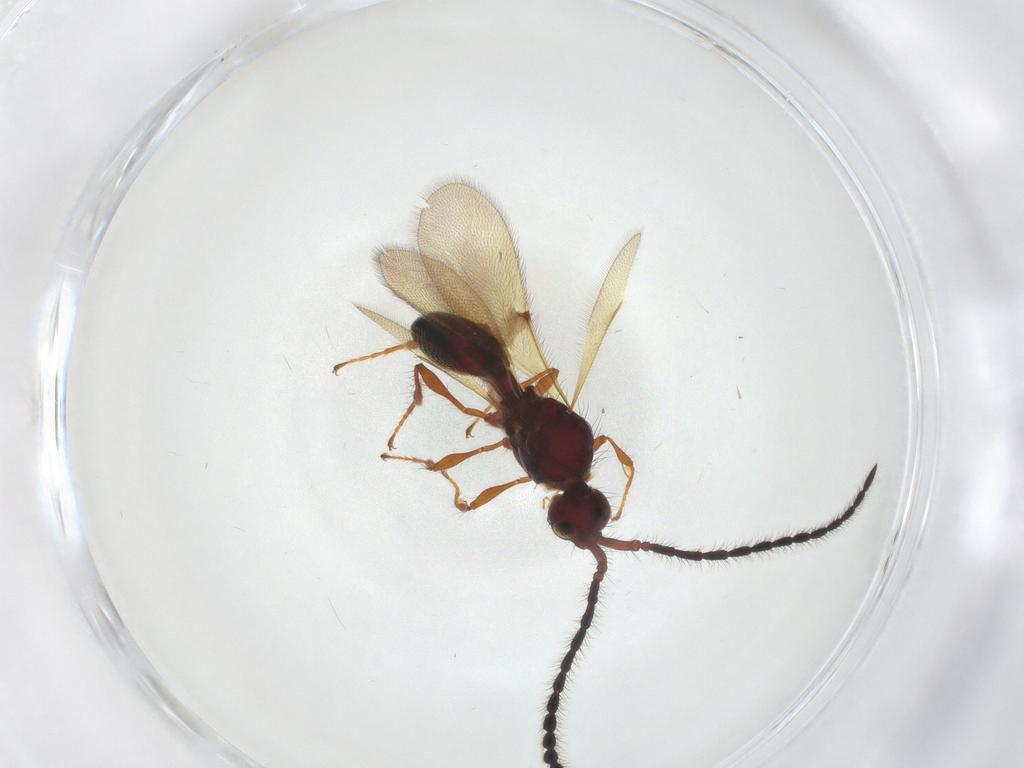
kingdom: Animalia
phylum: Arthropoda
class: Insecta
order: Hymenoptera
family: Diapriidae
